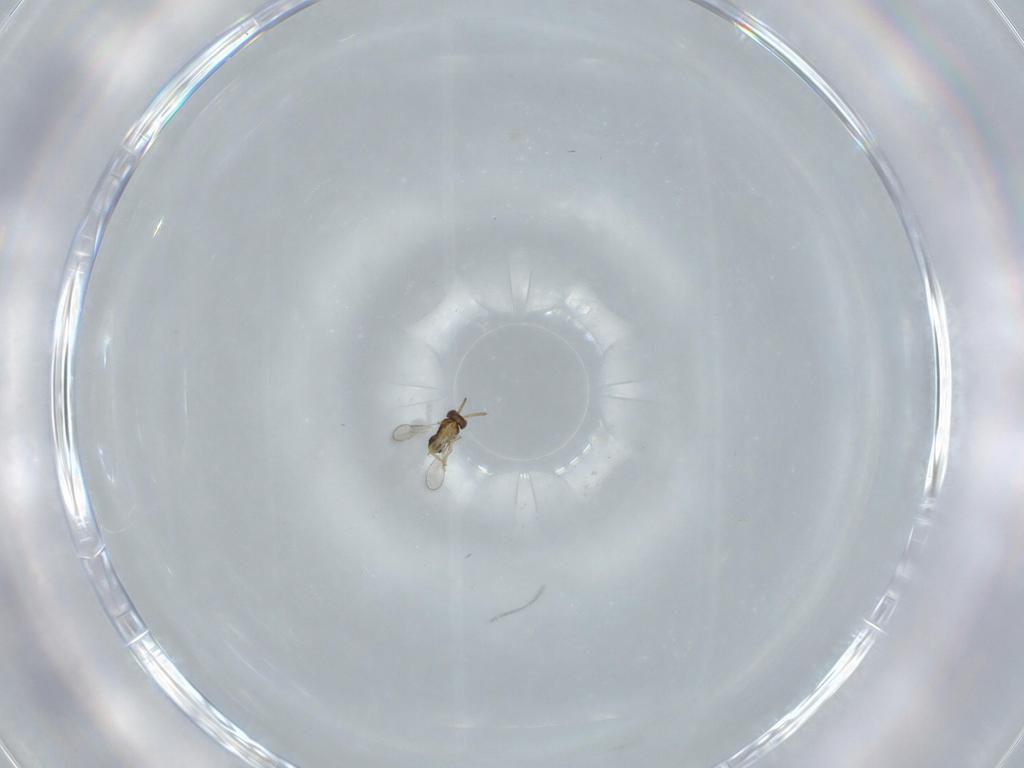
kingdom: Animalia
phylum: Arthropoda
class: Insecta
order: Hymenoptera
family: Aphelinidae
